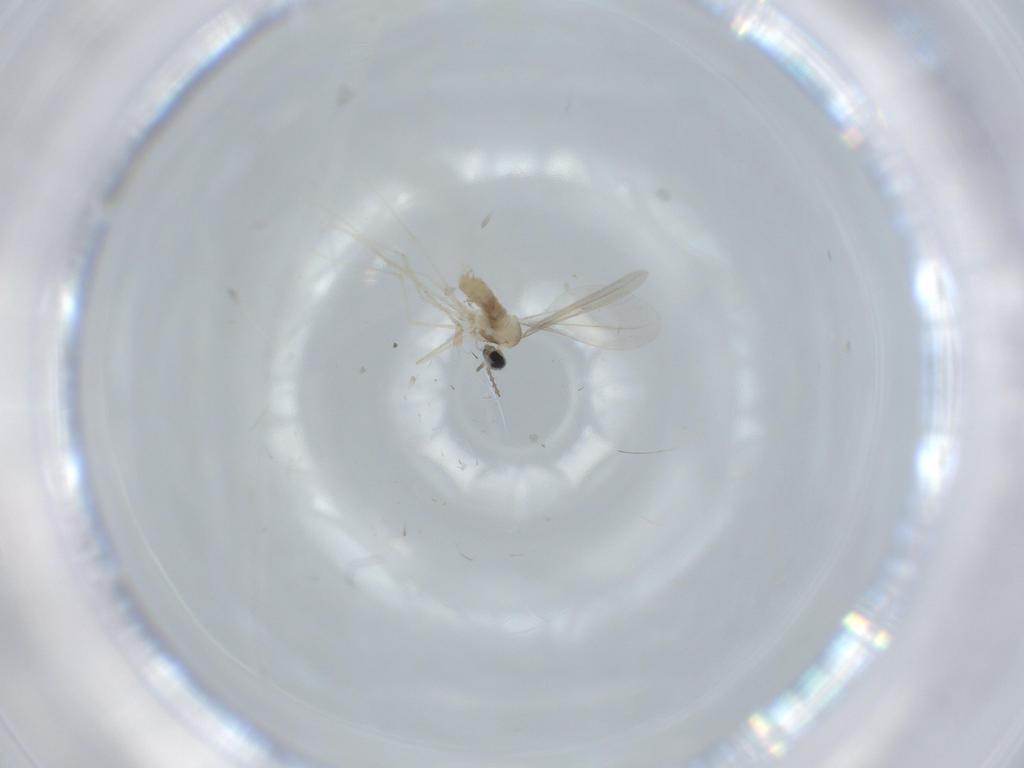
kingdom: Animalia
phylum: Arthropoda
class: Insecta
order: Diptera
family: Cecidomyiidae
